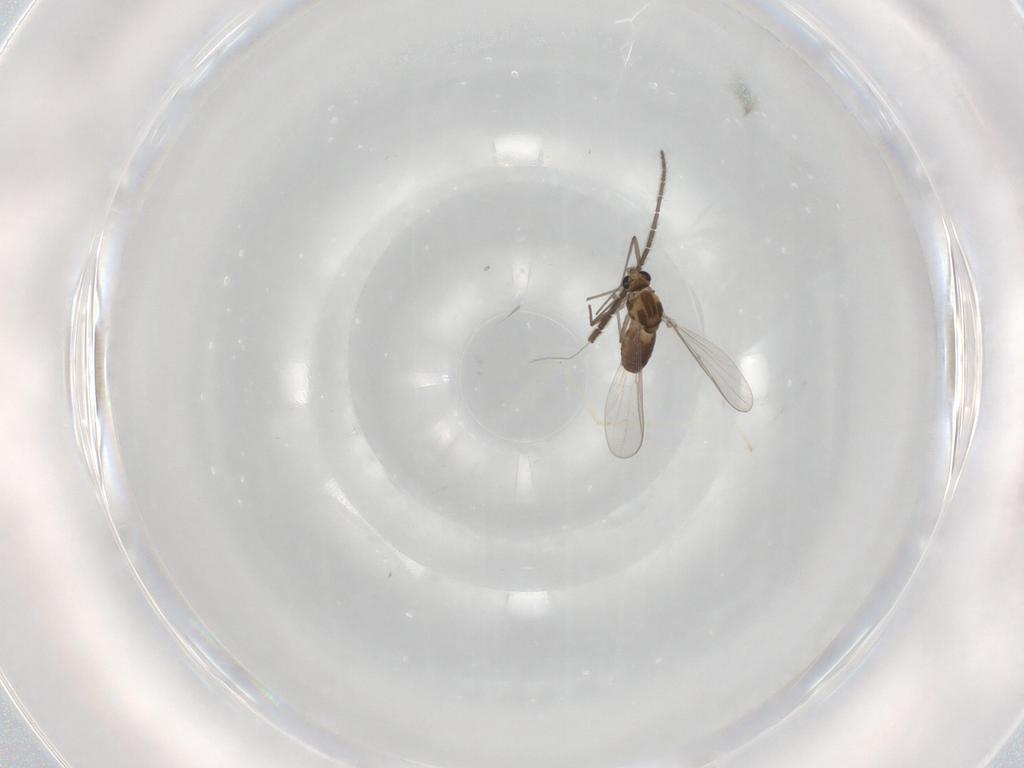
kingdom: Animalia
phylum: Arthropoda
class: Insecta
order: Diptera
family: Sciaridae
